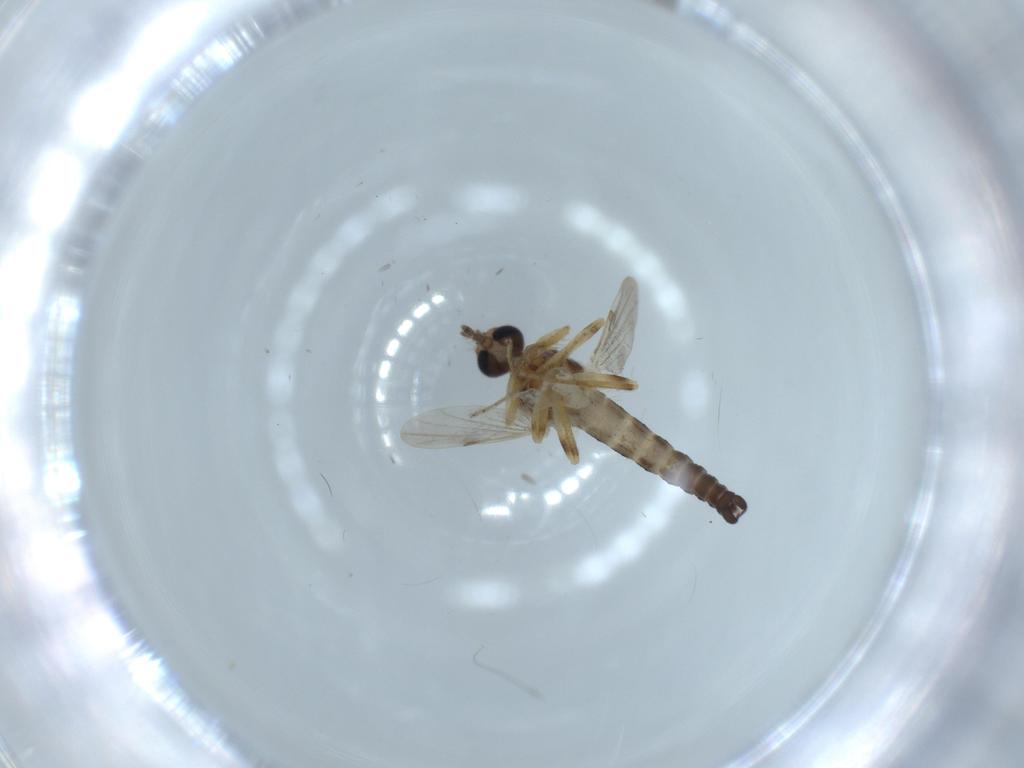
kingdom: Animalia
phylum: Arthropoda
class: Insecta
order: Diptera
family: Ceratopogonidae
